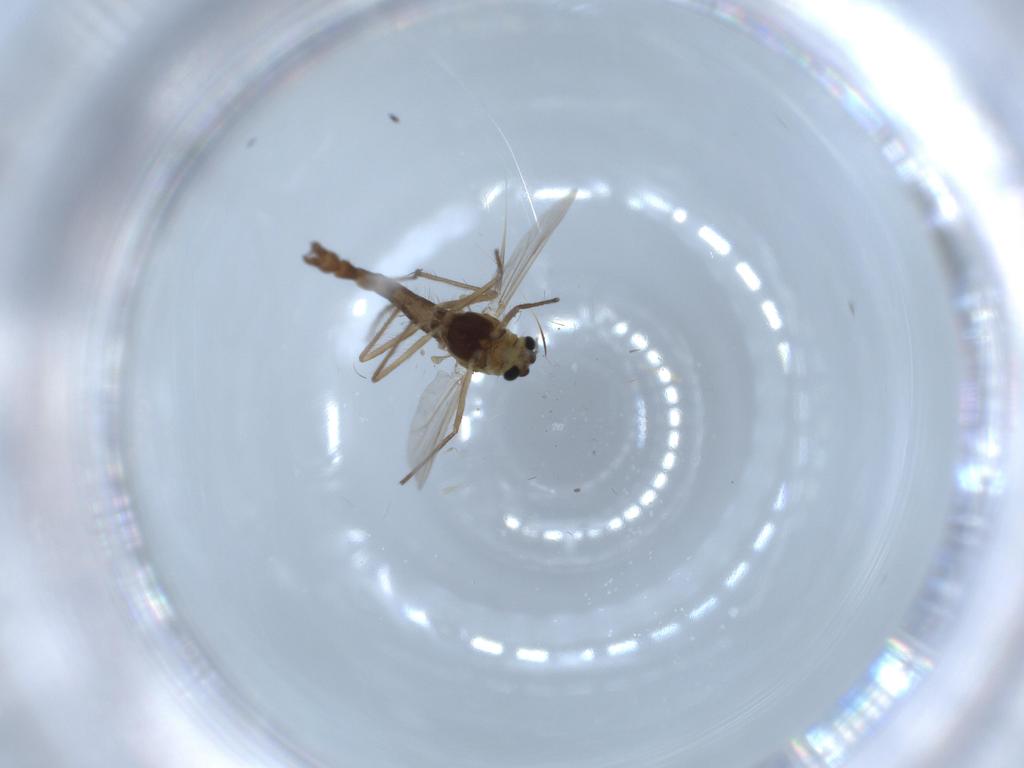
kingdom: Animalia
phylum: Arthropoda
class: Insecta
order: Diptera
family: Chironomidae
